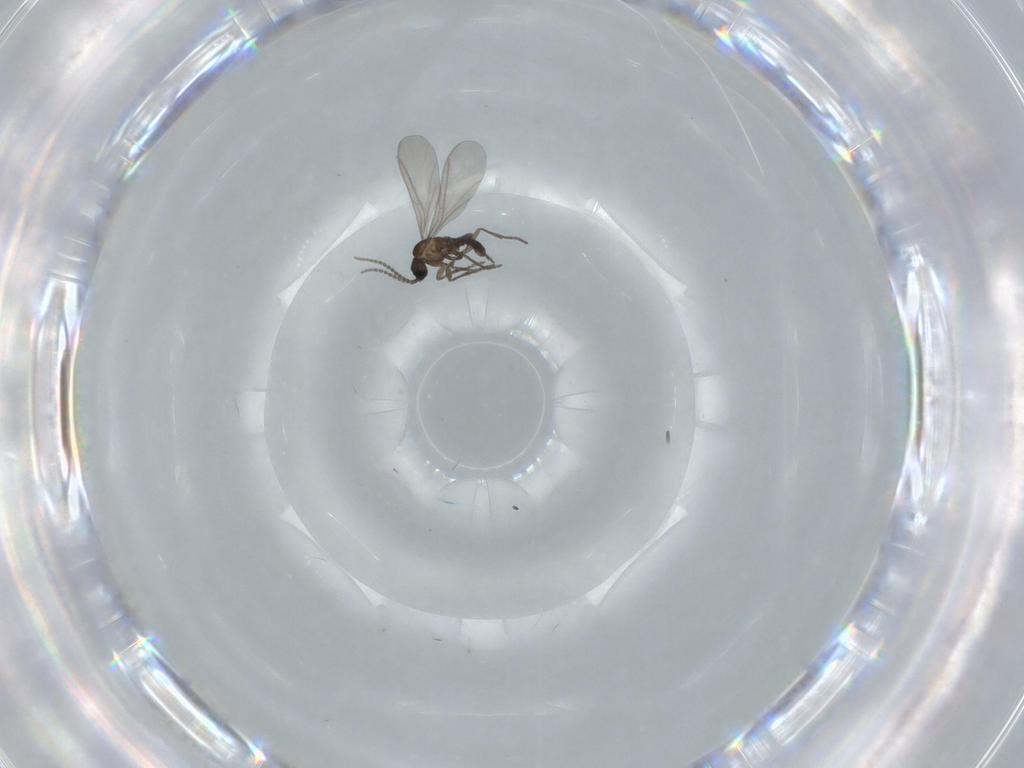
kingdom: Animalia
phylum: Arthropoda
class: Insecta
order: Diptera
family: Ceratopogonidae
